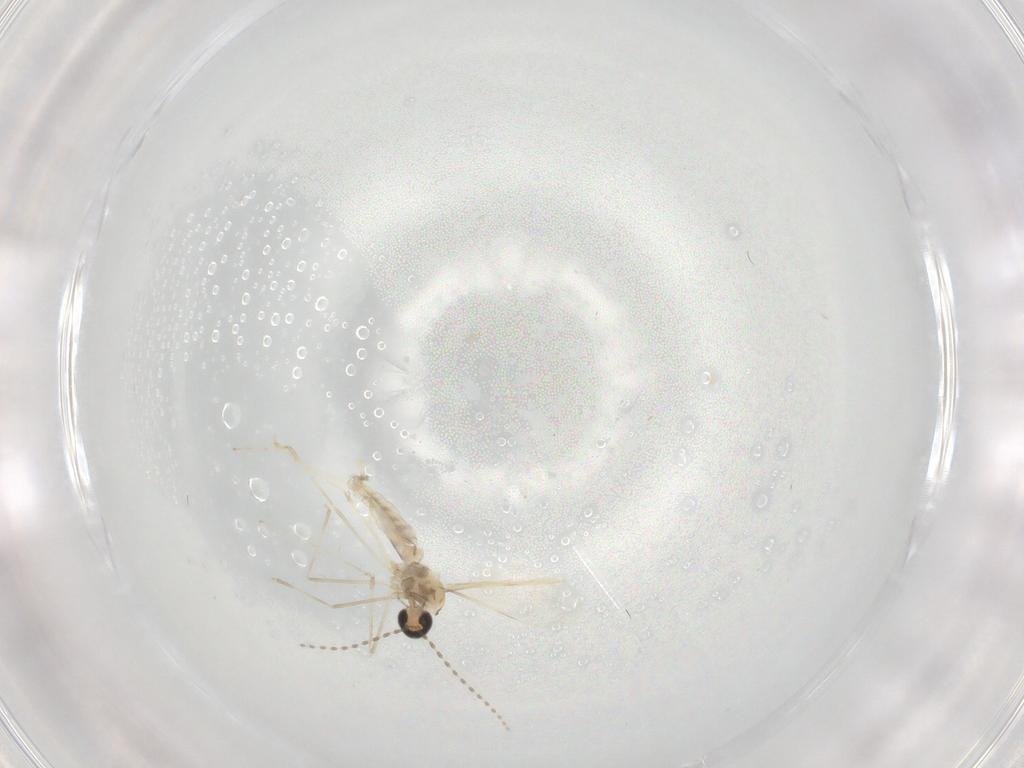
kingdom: Animalia
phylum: Arthropoda
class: Insecta
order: Diptera
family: Cecidomyiidae
